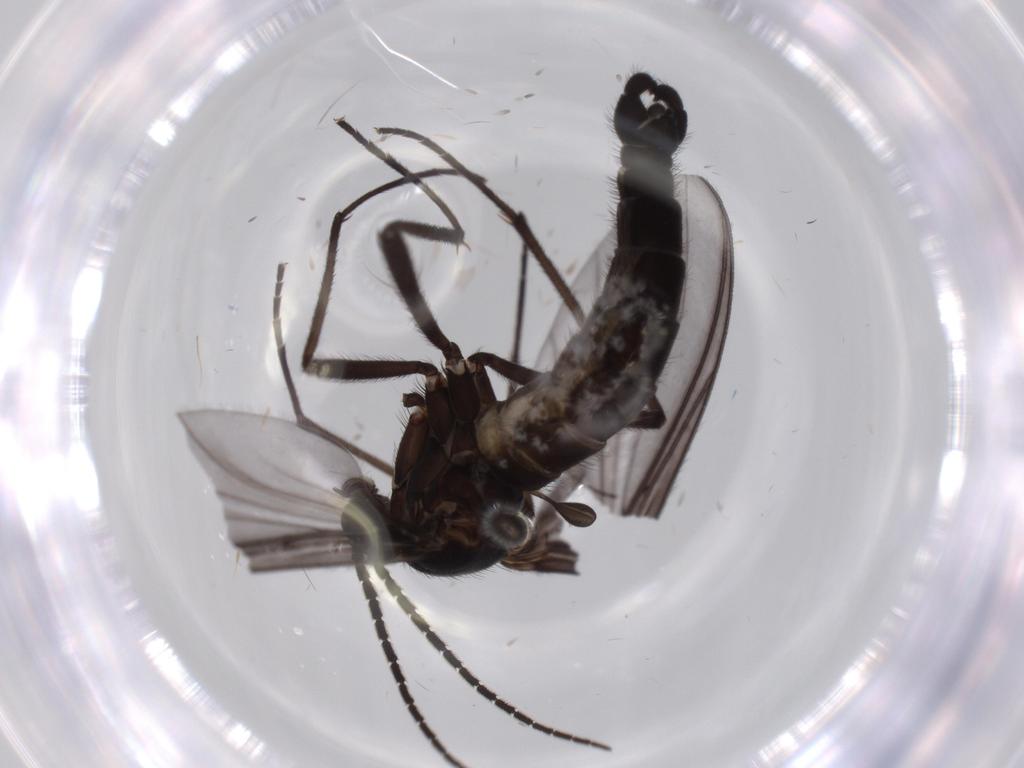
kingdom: Animalia
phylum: Arthropoda
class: Insecta
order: Diptera
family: Sciaridae
